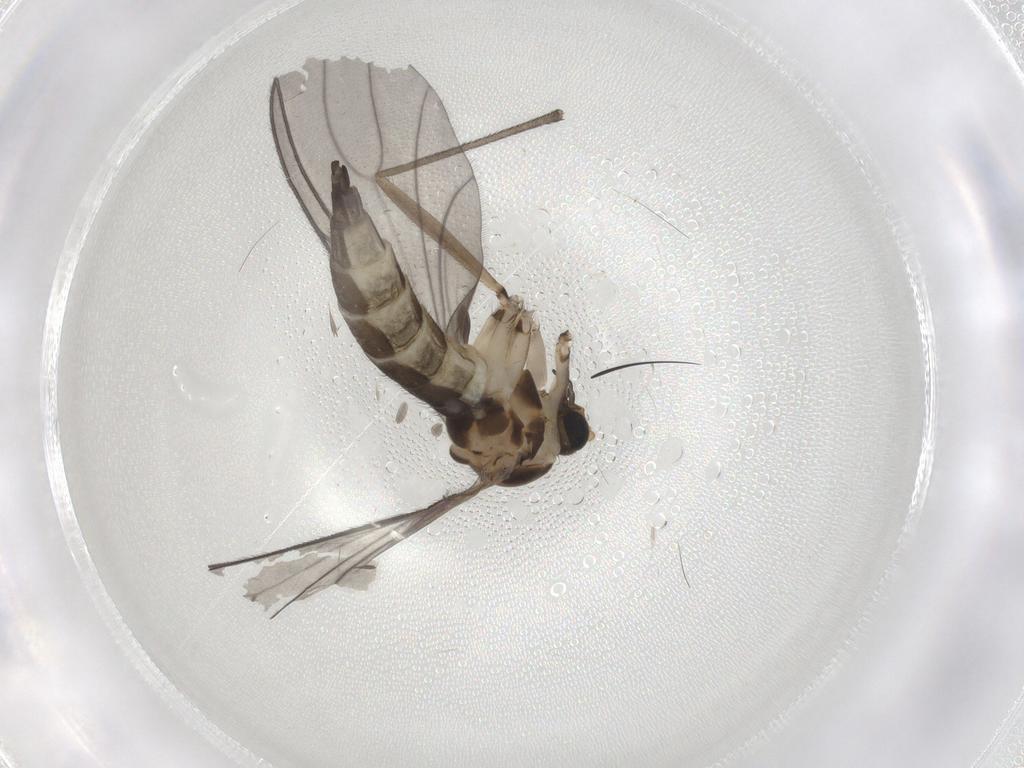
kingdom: Animalia
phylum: Arthropoda
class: Insecta
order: Diptera
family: Sciaridae
